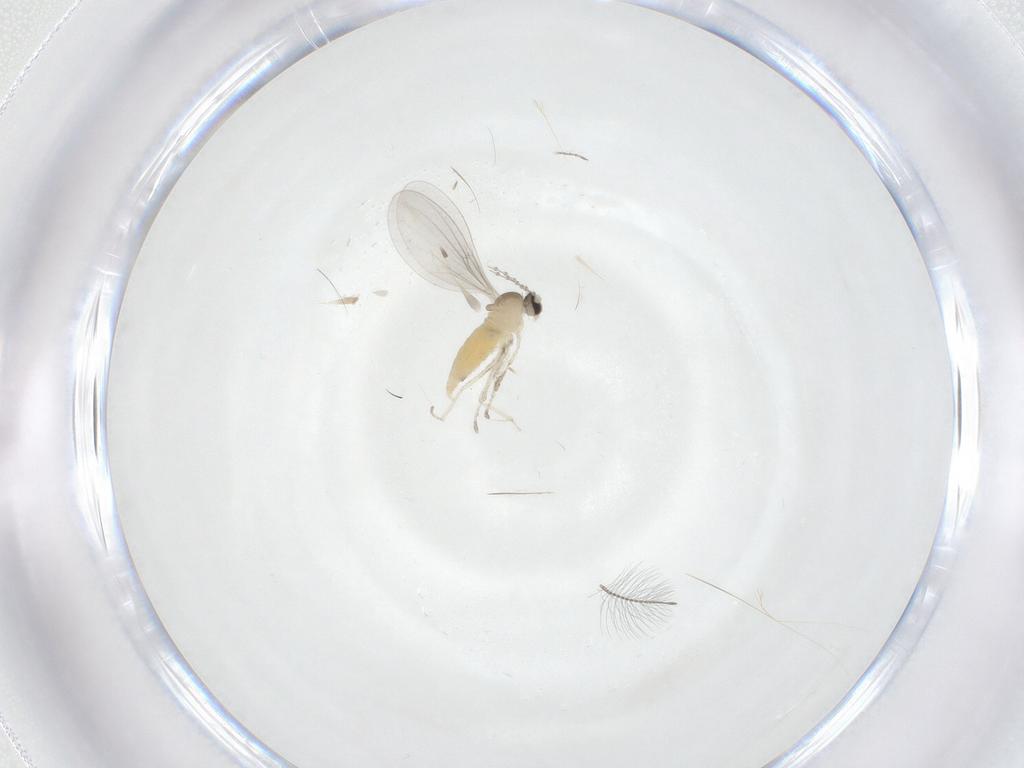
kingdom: Animalia
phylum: Arthropoda
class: Insecta
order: Diptera
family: Cecidomyiidae
